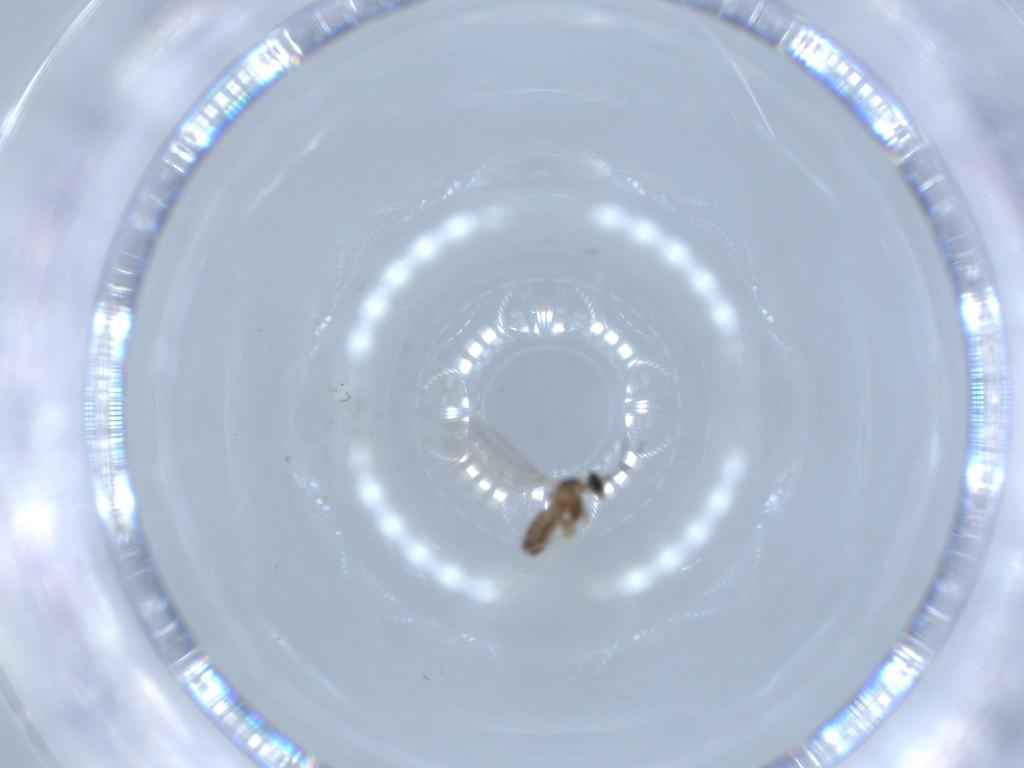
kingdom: Animalia
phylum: Arthropoda
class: Insecta
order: Diptera
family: Cecidomyiidae
